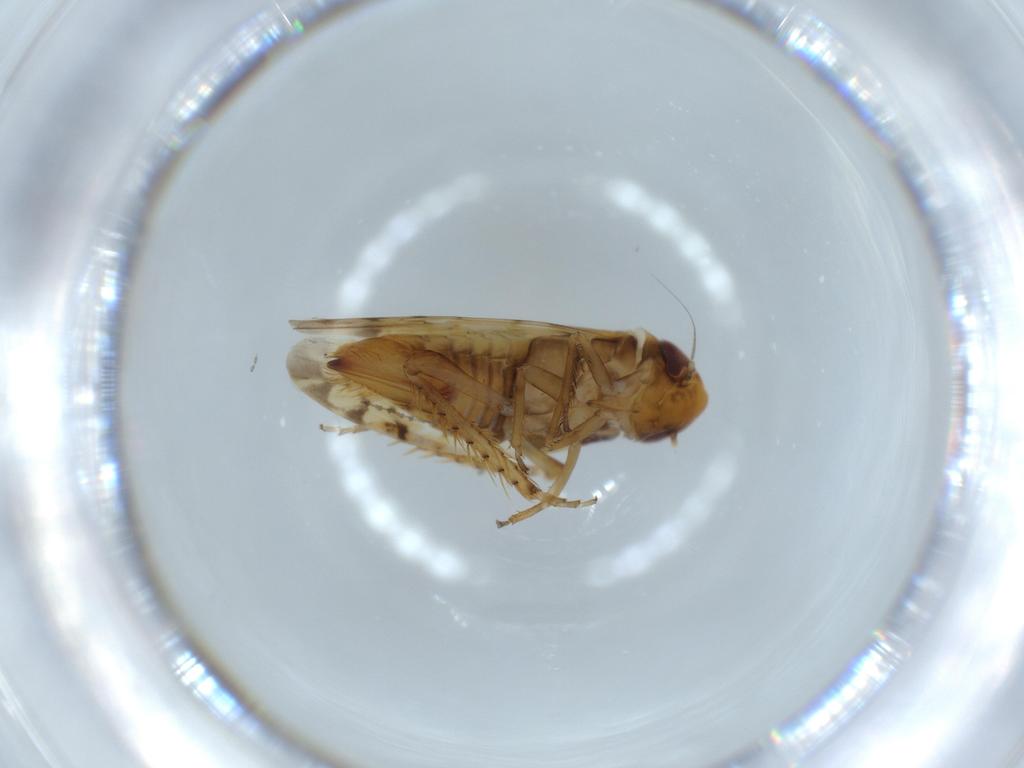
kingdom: Animalia
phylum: Arthropoda
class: Insecta
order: Hemiptera
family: Cicadellidae
